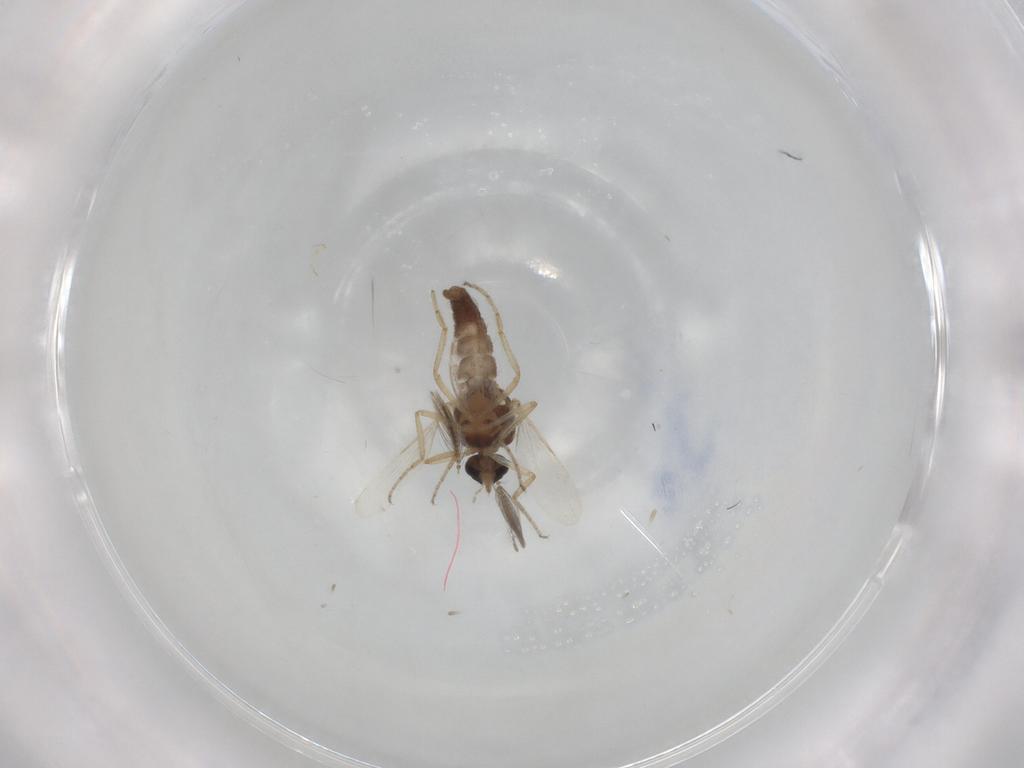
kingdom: Animalia
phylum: Arthropoda
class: Insecta
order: Diptera
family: Ceratopogonidae
